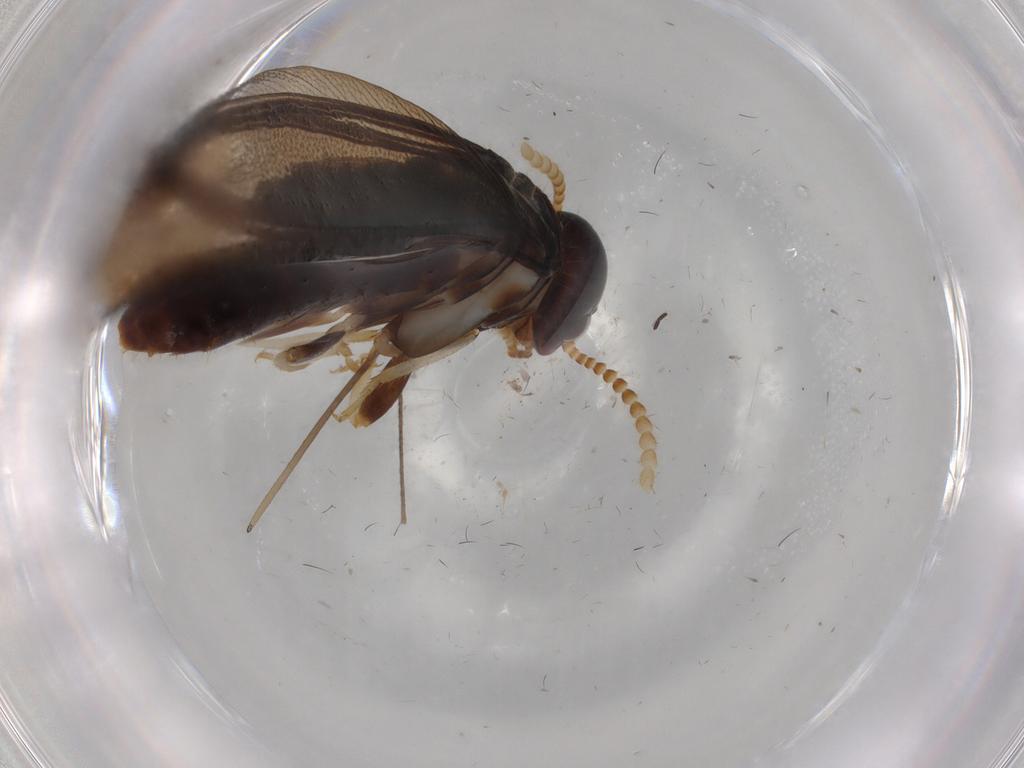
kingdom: Animalia
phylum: Arthropoda
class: Insecta
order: Blattodea
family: Kalotermitidae
